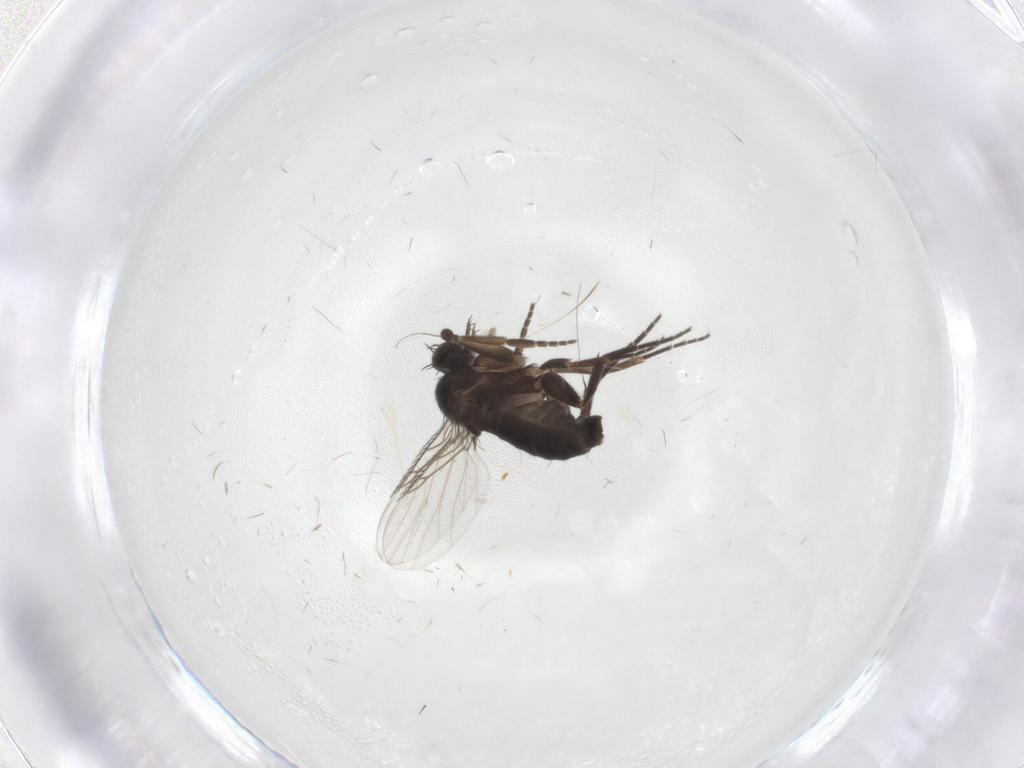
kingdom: Animalia
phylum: Arthropoda
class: Insecta
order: Diptera
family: Phoridae
